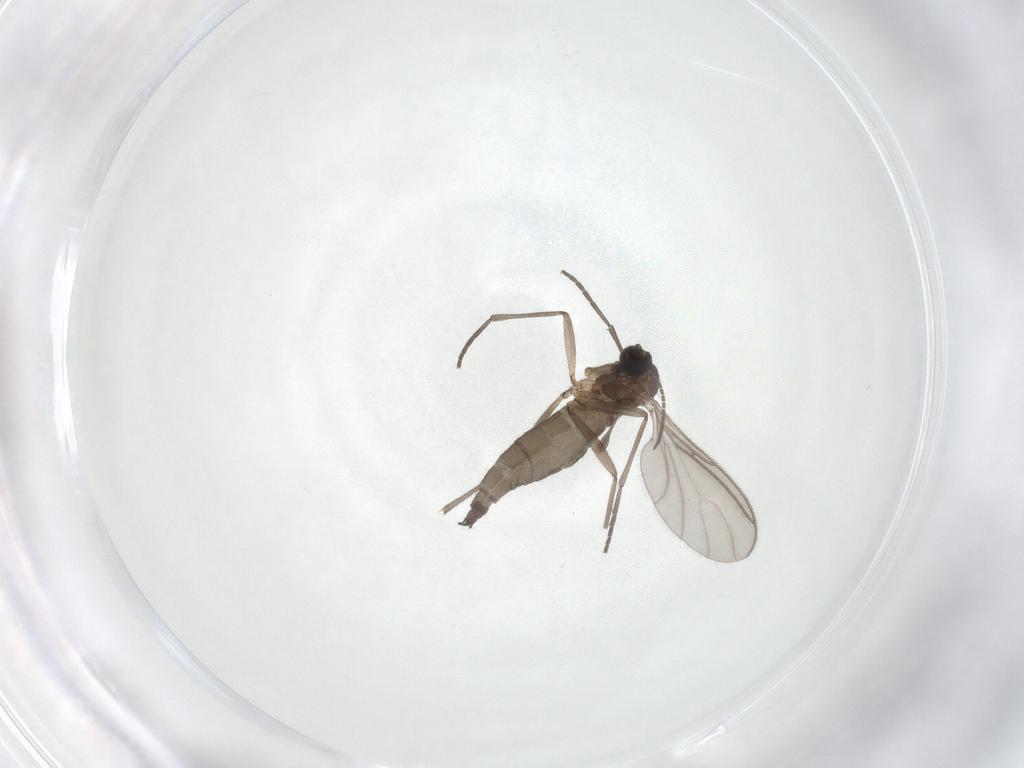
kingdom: Animalia
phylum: Arthropoda
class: Insecta
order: Diptera
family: Sciaridae
